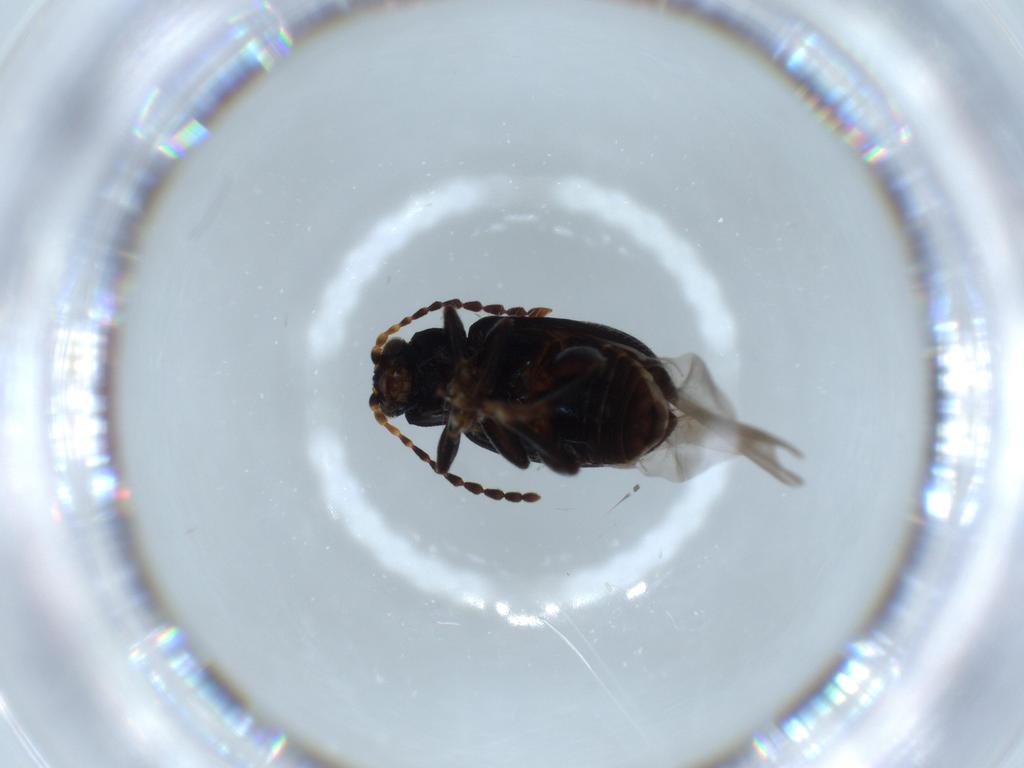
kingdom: Animalia
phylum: Arthropoda
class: Insecta
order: Coleoptera
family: Chrysomelidae
